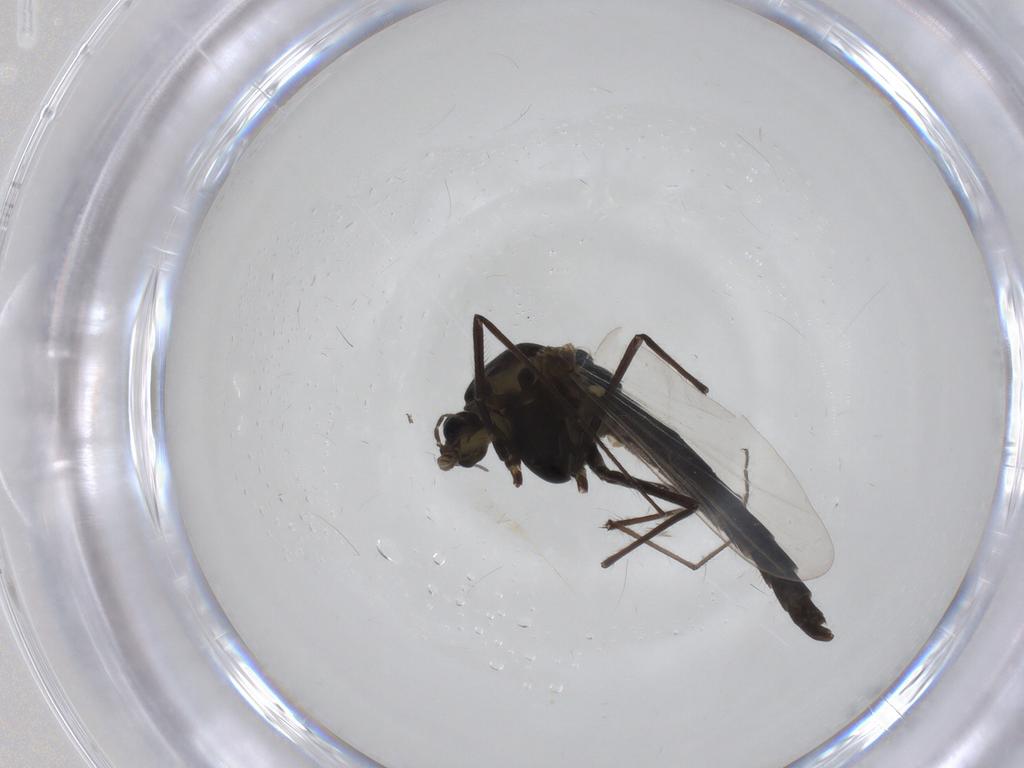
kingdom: Animalia
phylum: Arthropoda
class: Insecta
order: Diptera
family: Chironomidae
